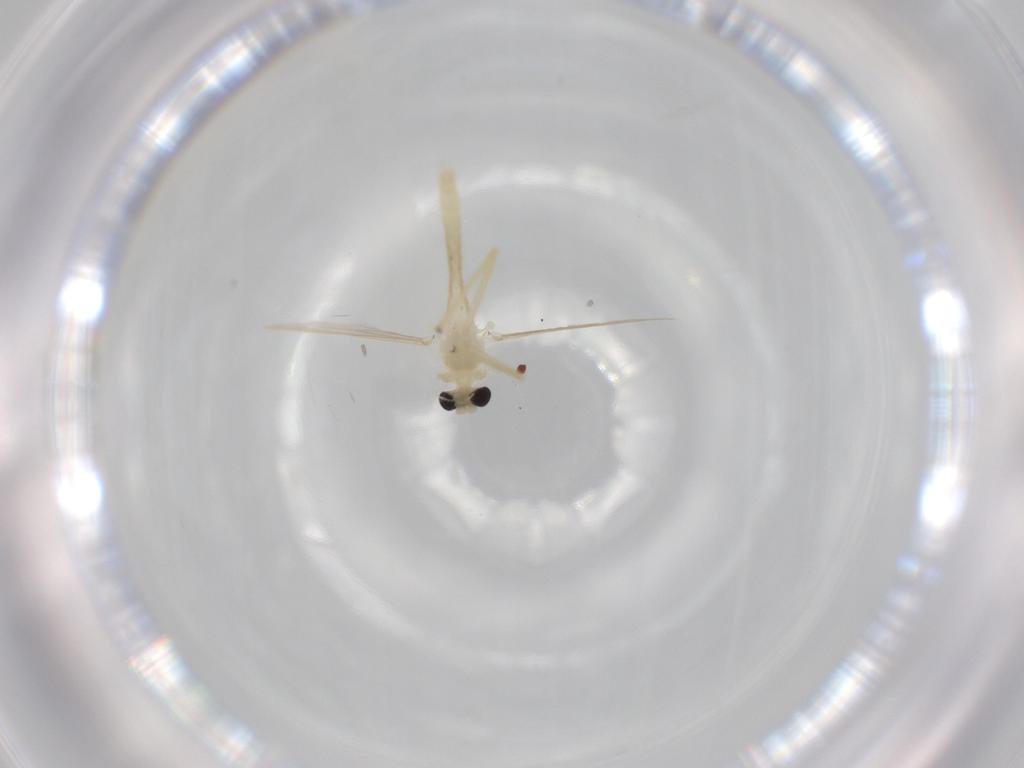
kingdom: Animalia
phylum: Arthropoda
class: Insecta
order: Diptera
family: Chironomidae
